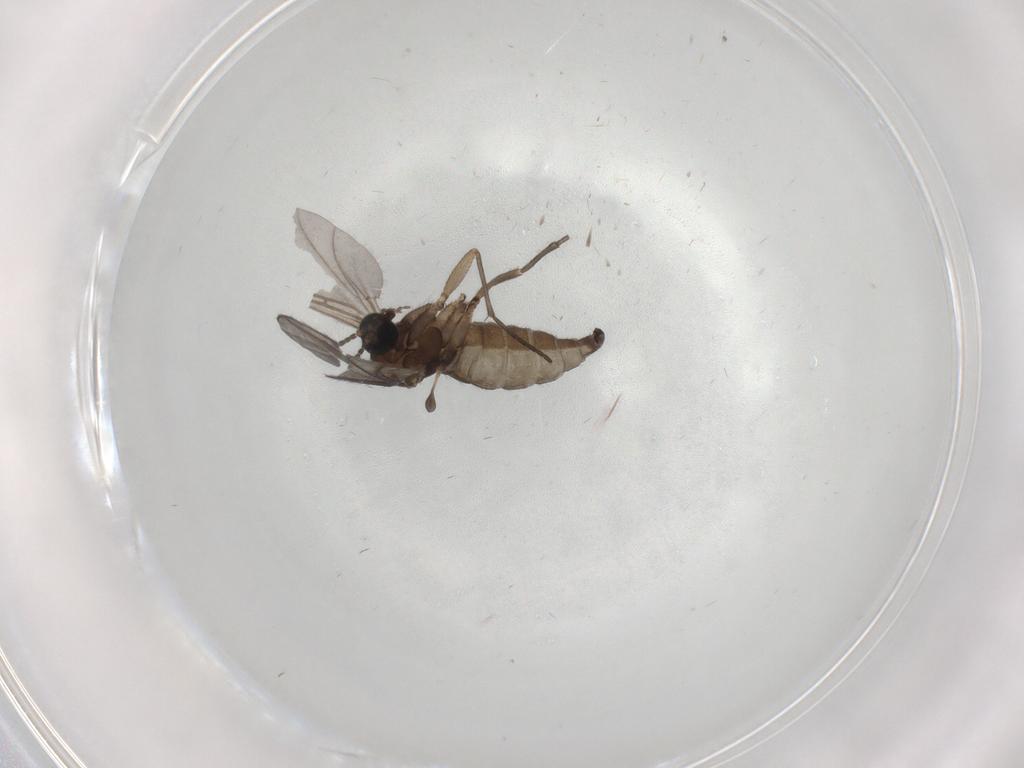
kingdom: Animalia
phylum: Arthropoda
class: Insecta
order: Diptera
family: Sciaridae
